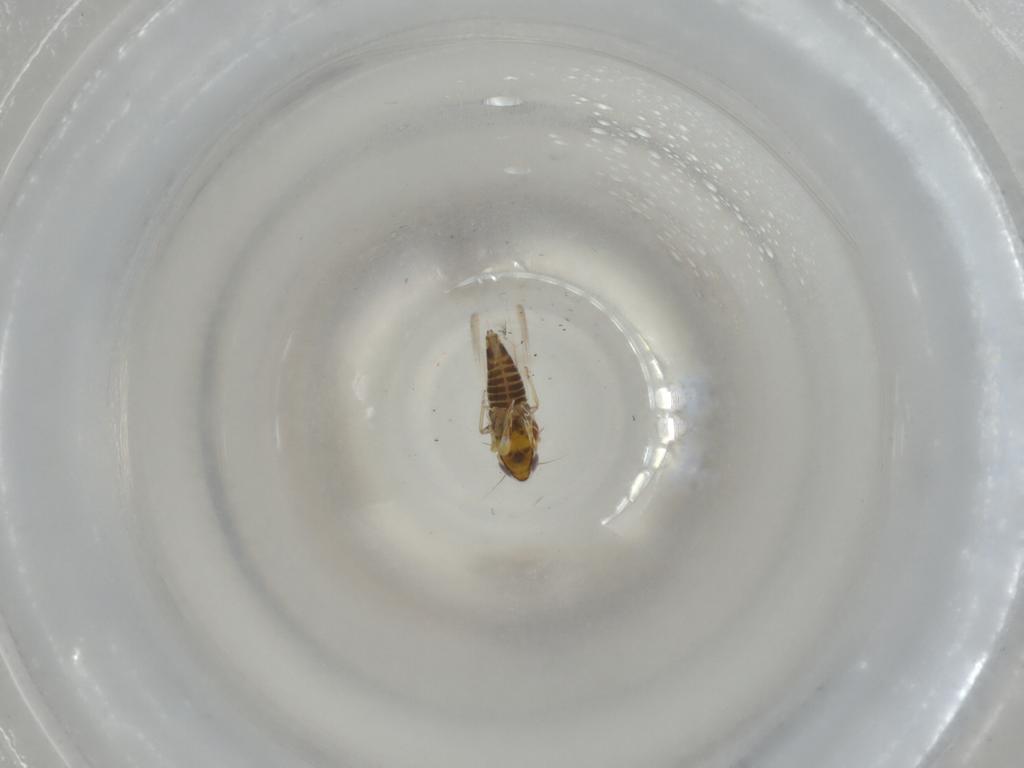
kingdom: Animalia
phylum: Arthropoda
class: Insecta
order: Hemiptera
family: Cicadellidae
